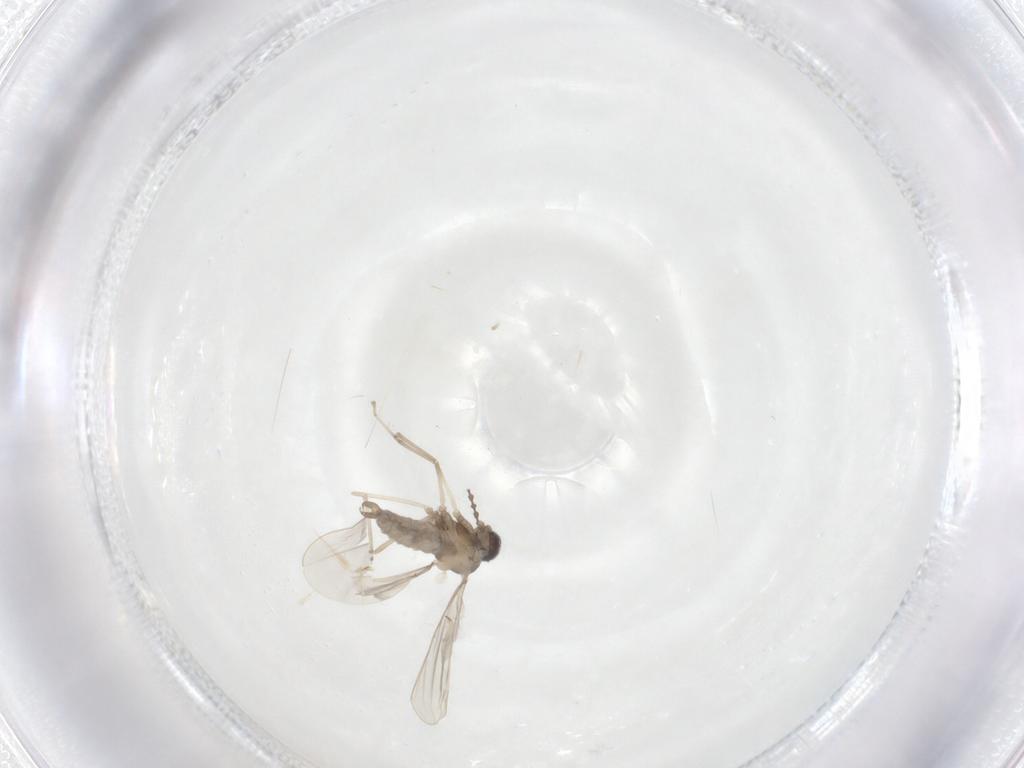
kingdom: Animalia
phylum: Arthropoda
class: Insecta
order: Diptera
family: Cecidomyiidae
